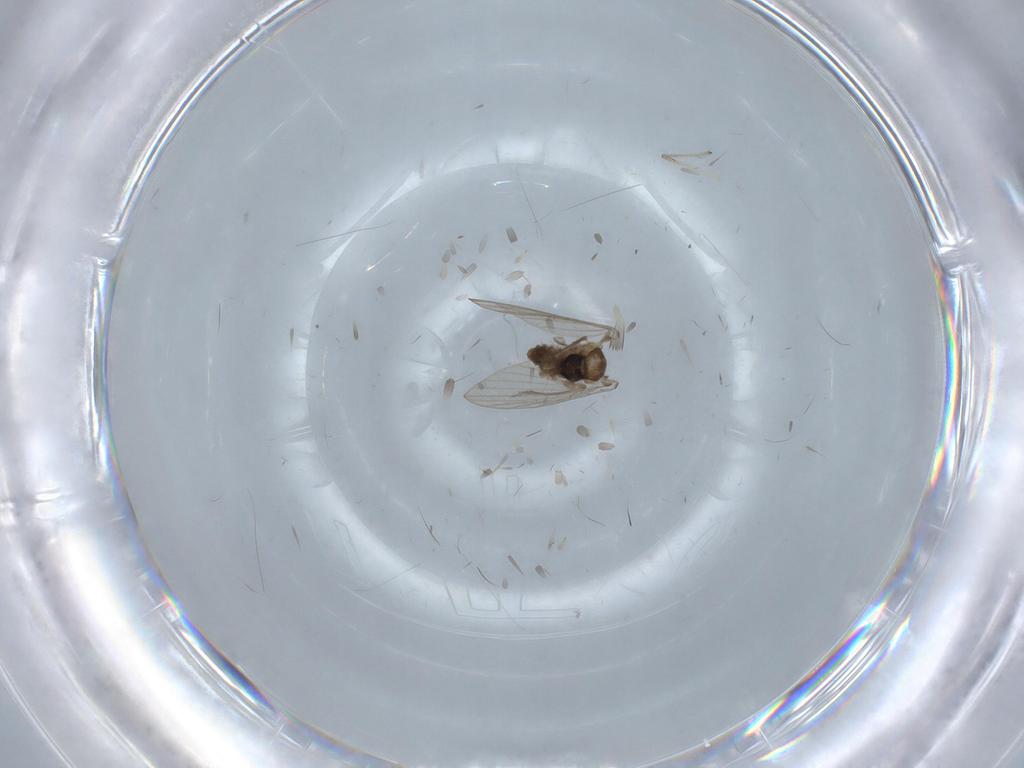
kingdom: Animalia
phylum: Arthropoda
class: Insecta
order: Diptera
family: Psychodidae
